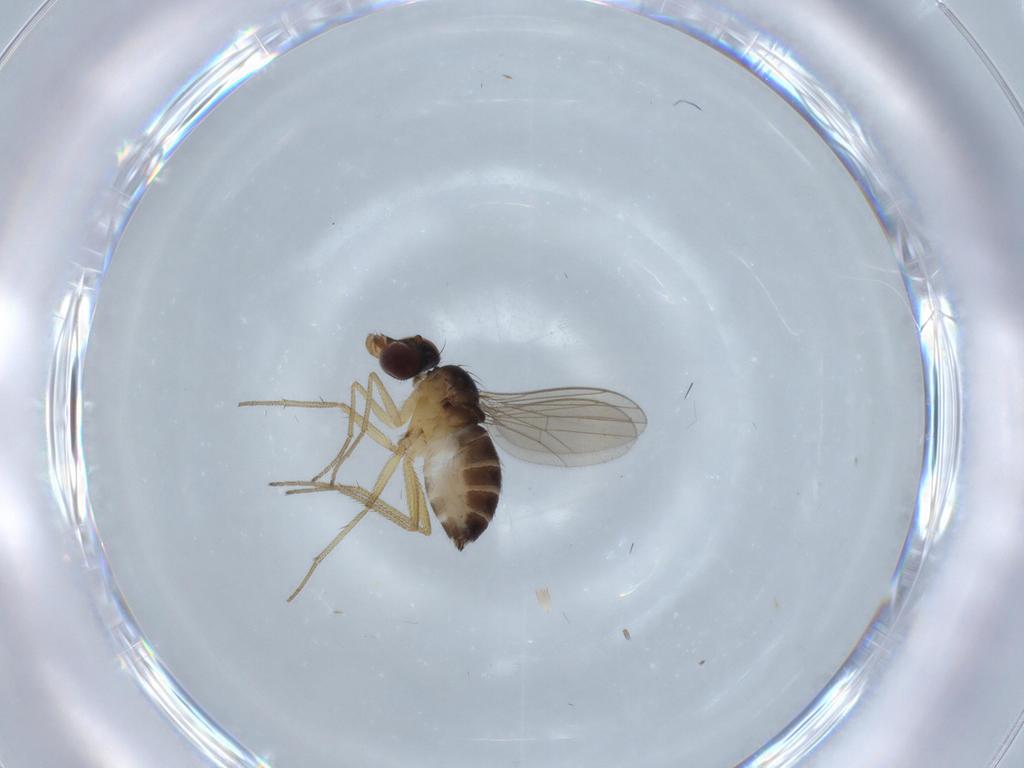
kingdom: Animalia
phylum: Arthropoda
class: Insecta
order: Diptera
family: Dolichopodidae
